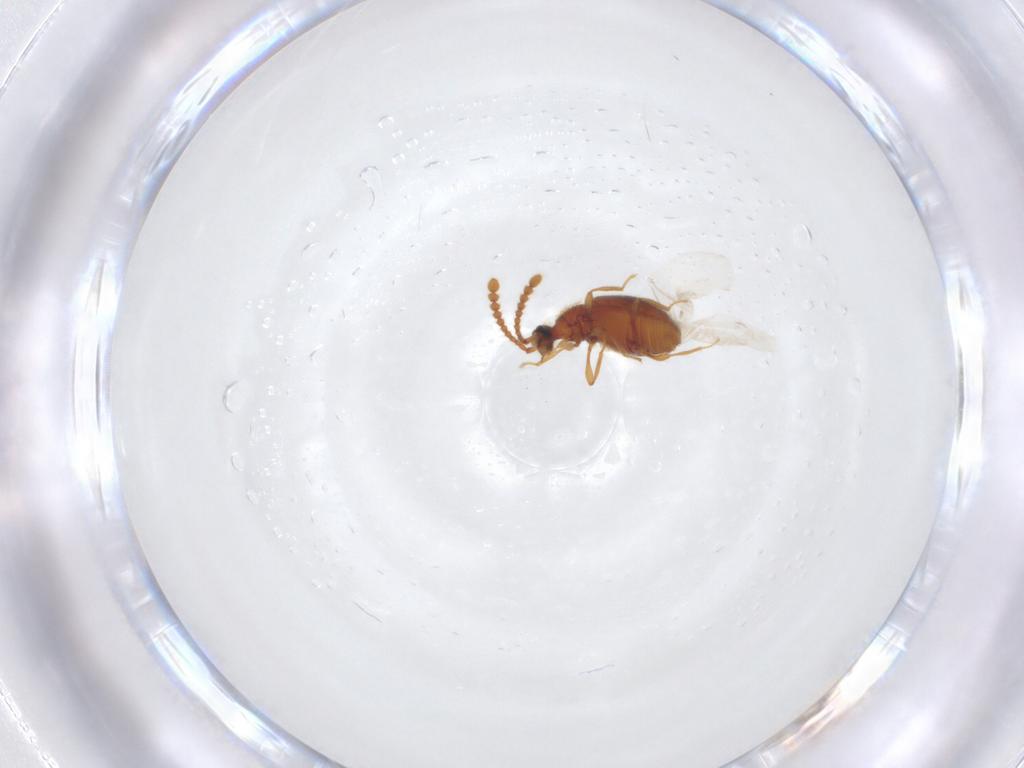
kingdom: Animalia
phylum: Arthropoda
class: Insecta
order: Coleoptera
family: Staphylinidae
